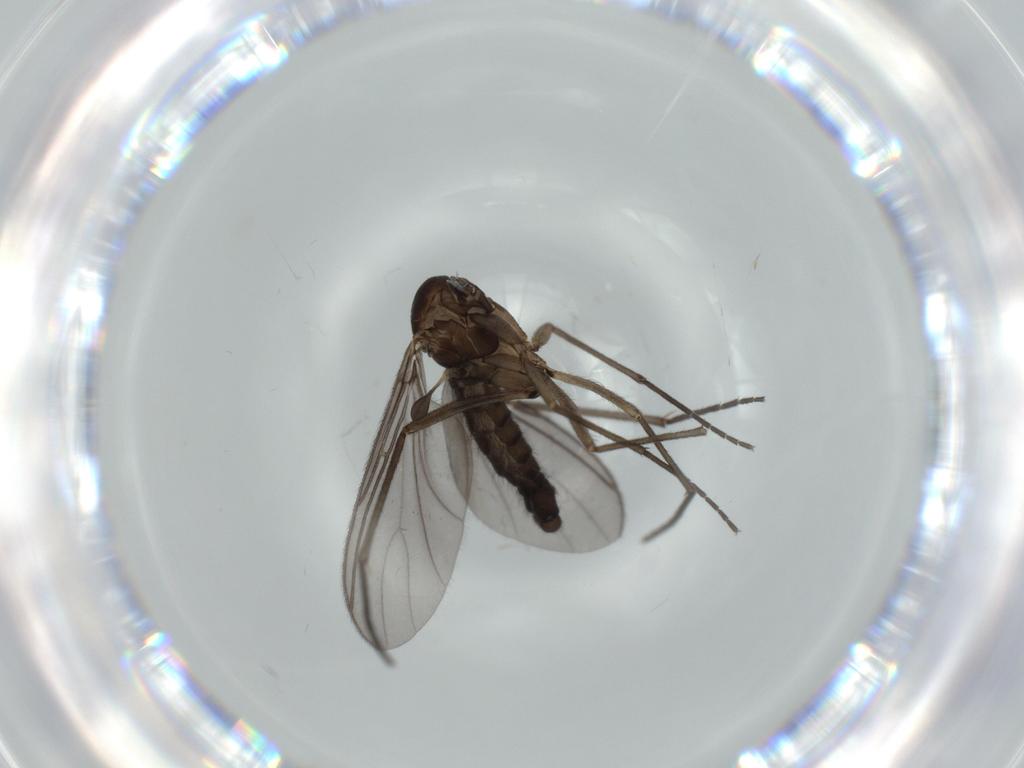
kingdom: Animalia
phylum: Arthropoda
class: Insecta
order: Diptera
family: Sciaridae
